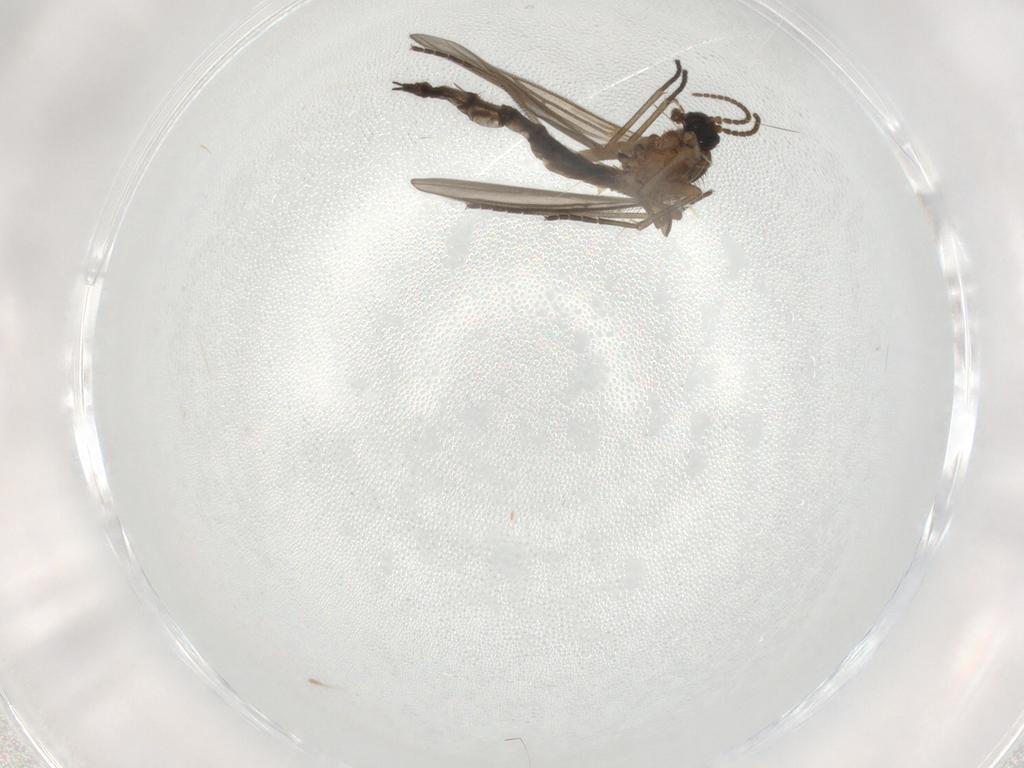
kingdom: Animalia
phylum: Arthropoda
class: Insecta
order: Diptera
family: Sciaridae
